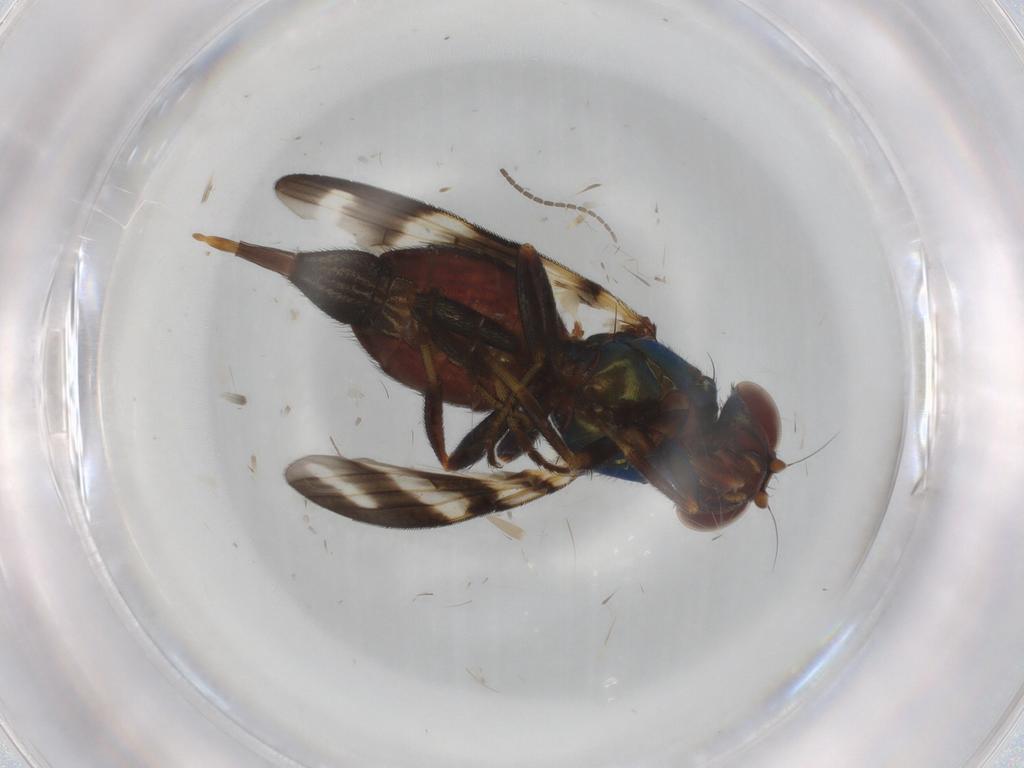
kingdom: Animalia
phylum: Arthropoda
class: Insecta
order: Diptera
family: Ulidiidae
